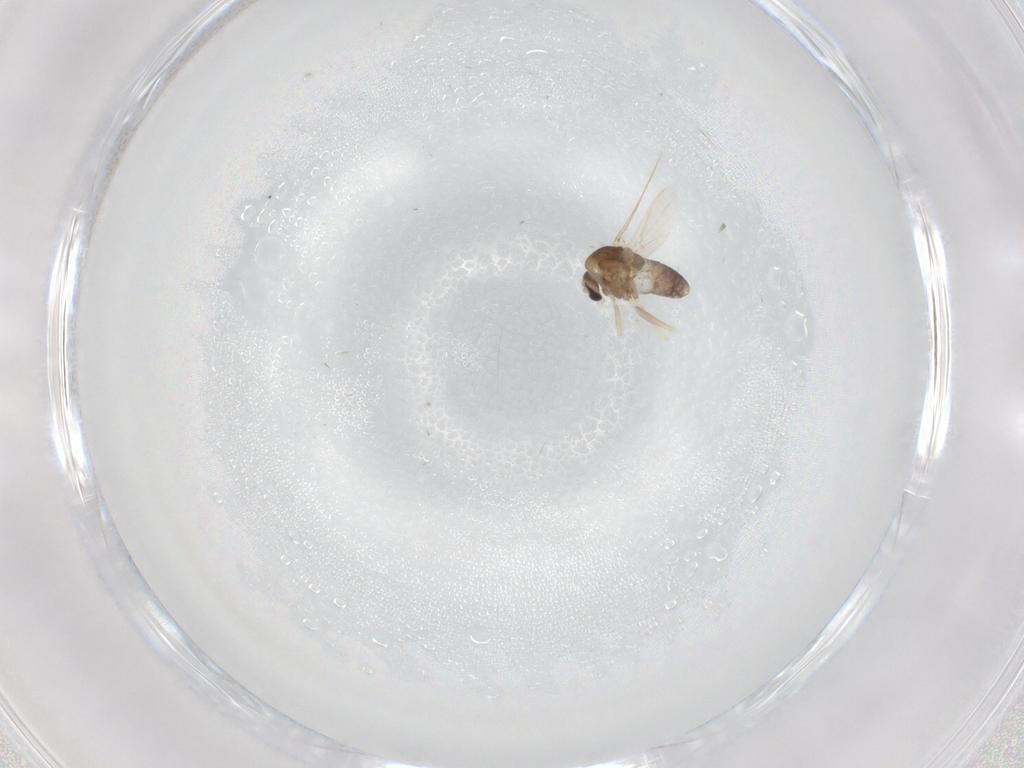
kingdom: Animalia
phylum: Arthropoda
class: Insecta
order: Diptera
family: Chironomidae
